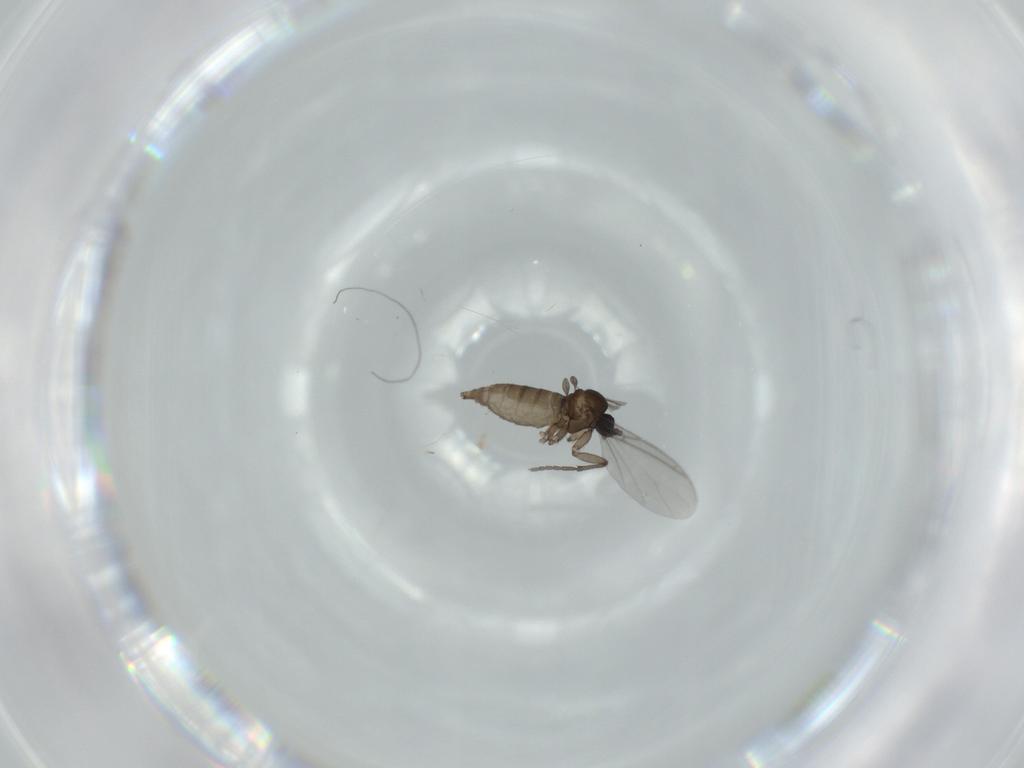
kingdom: Animalia
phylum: Arthropoda
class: Insecta
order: Diptera
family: Sciaridae
